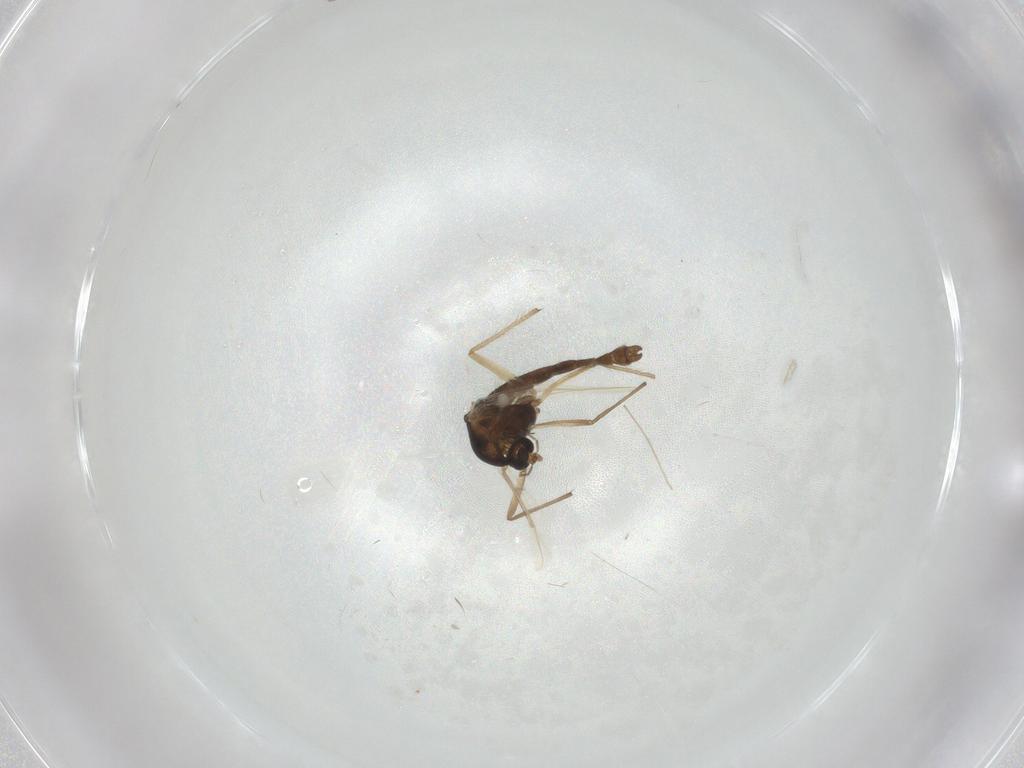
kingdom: Animalia
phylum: Arthropoda
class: Insecta
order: Diptera
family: Chironomidae
